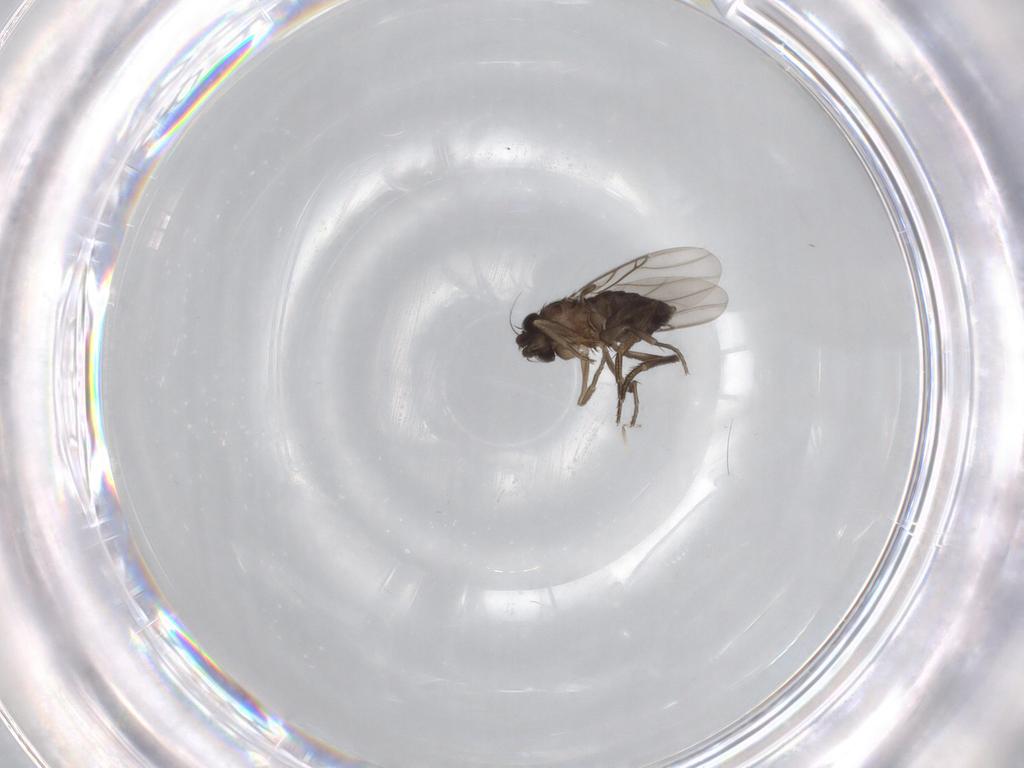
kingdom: Animalia
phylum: Arthropoda
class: Insecta
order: Diptera
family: Phoridae
